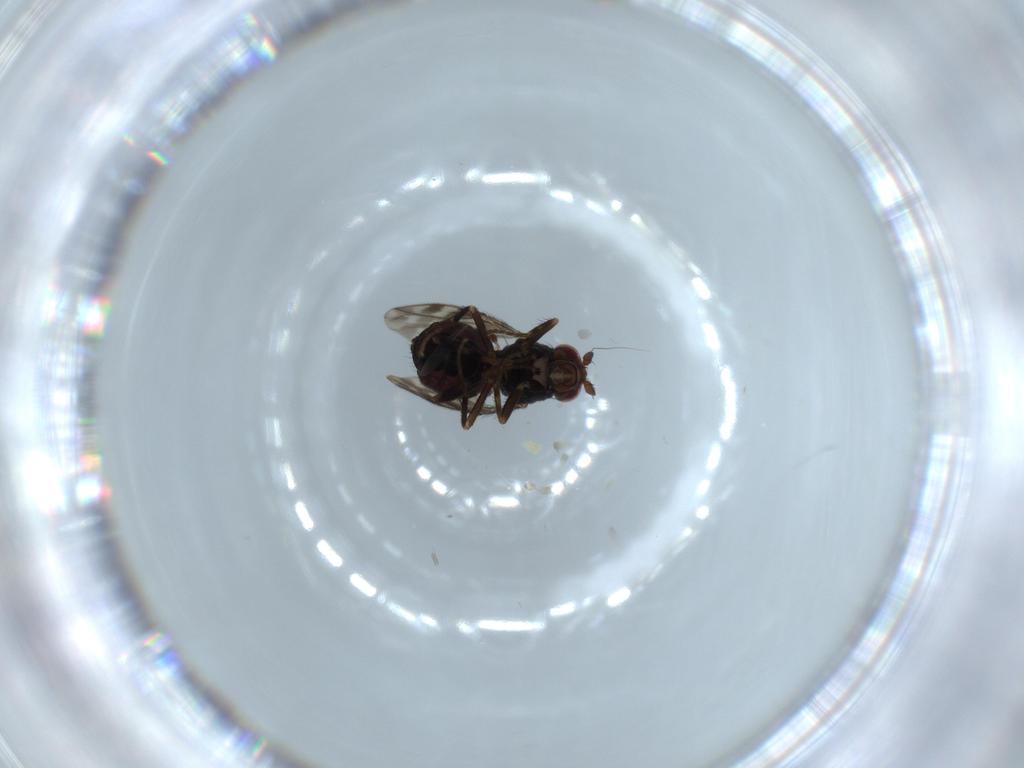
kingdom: Animalia
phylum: Arthropoda
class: Insecta
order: Diptera
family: Sphaeroceridae
